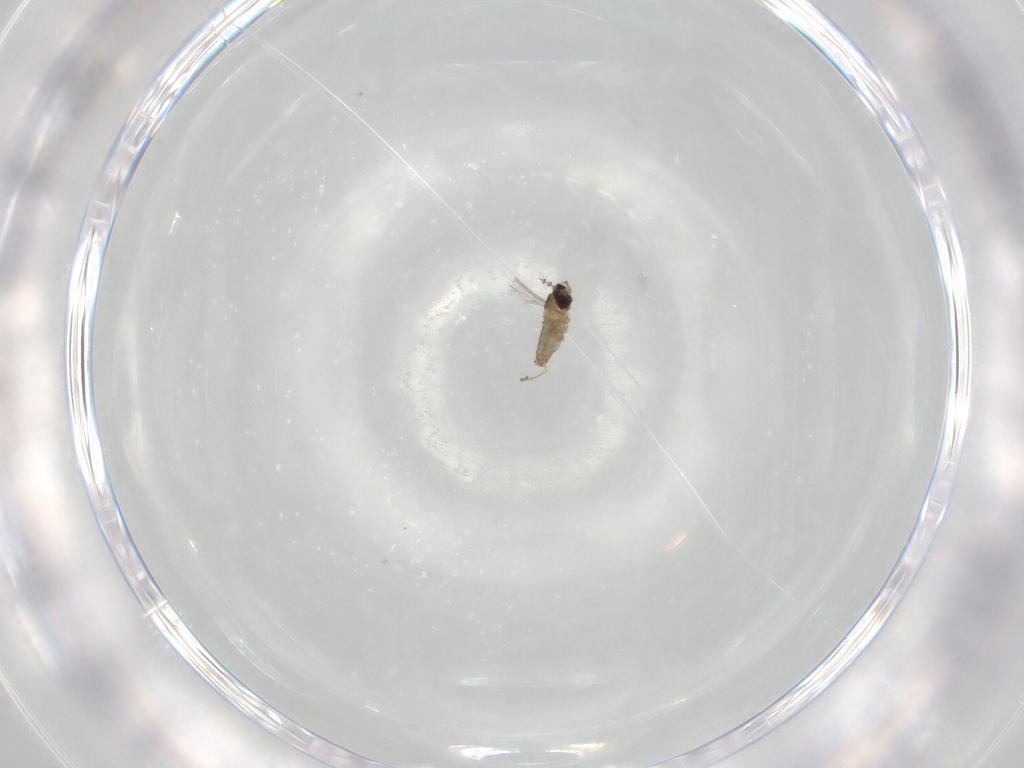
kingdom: Animalia
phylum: Arthropoda
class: Insecta
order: Diptera
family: Cecidomyiidae
